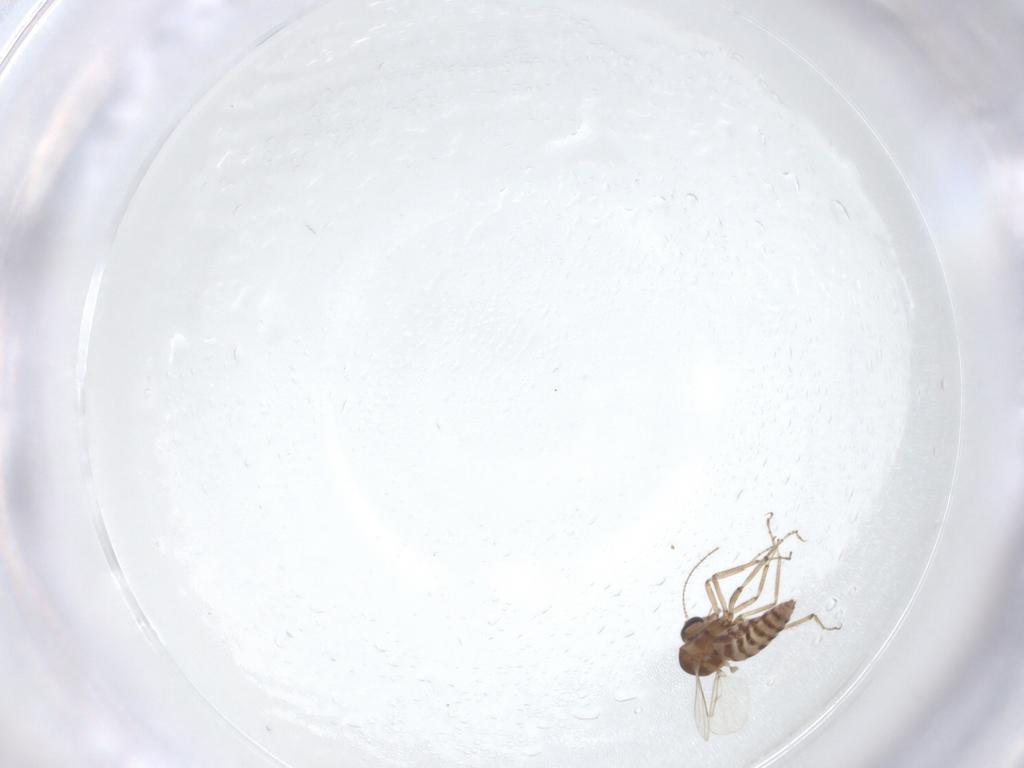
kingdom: Animalia
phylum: Arthropoda
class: Insecta
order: Diptera
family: Ceratopogonidae
